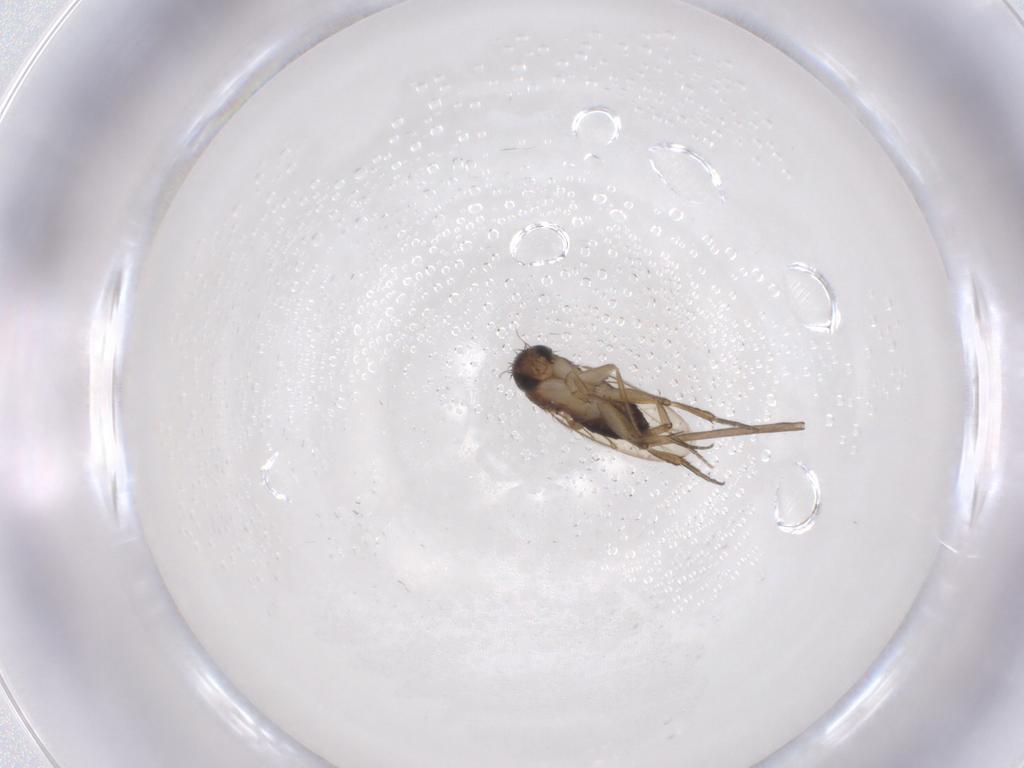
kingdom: Animalia
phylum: Arthropoda
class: Insecta
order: Diptera
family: Phoridae
